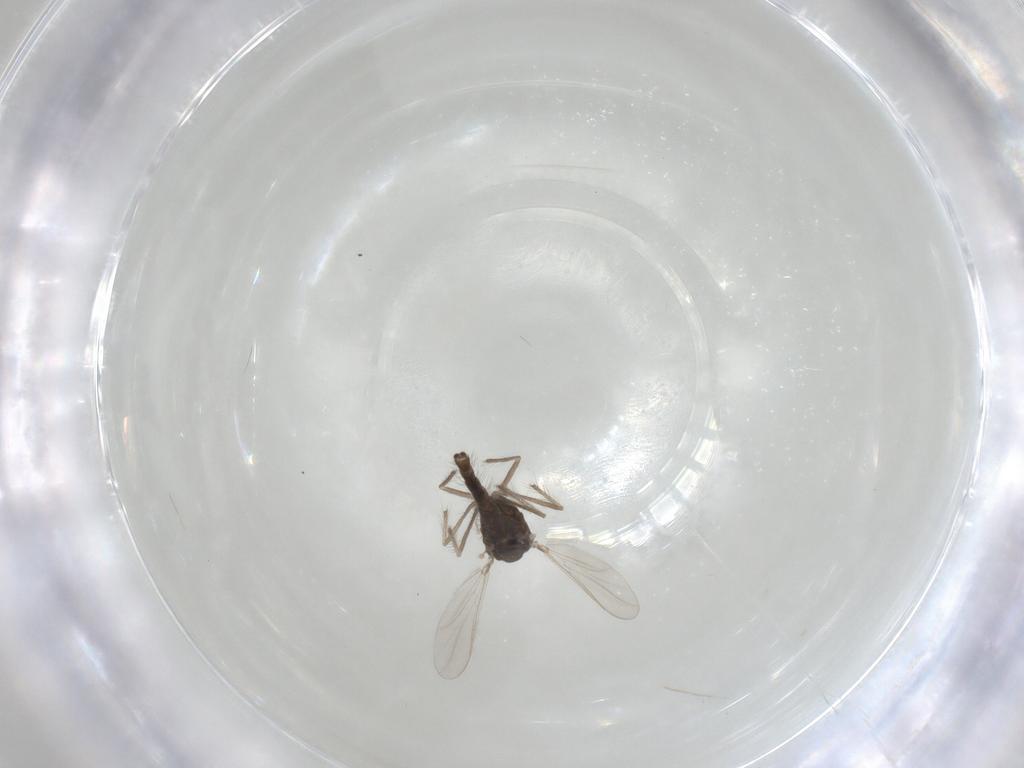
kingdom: Animalia
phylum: Arthropoda
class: Insecta
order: Diptera
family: Chironomidae
